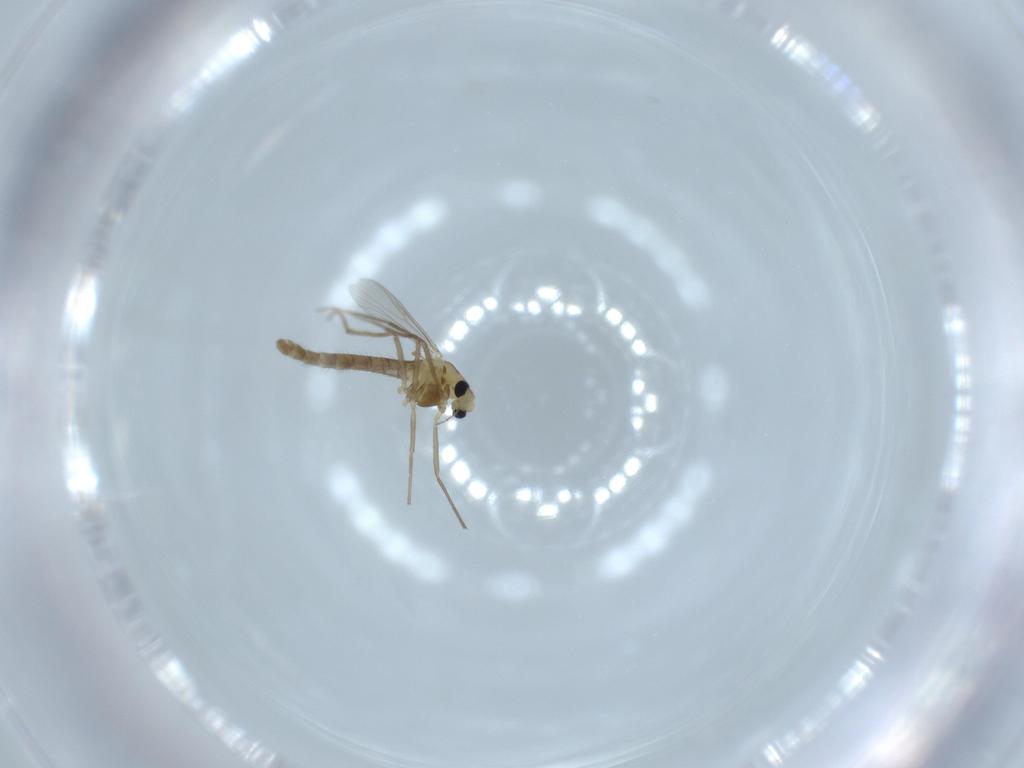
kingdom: Animalia
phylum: Arthropoda
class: Insecta
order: Diptera
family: Chironomidae
